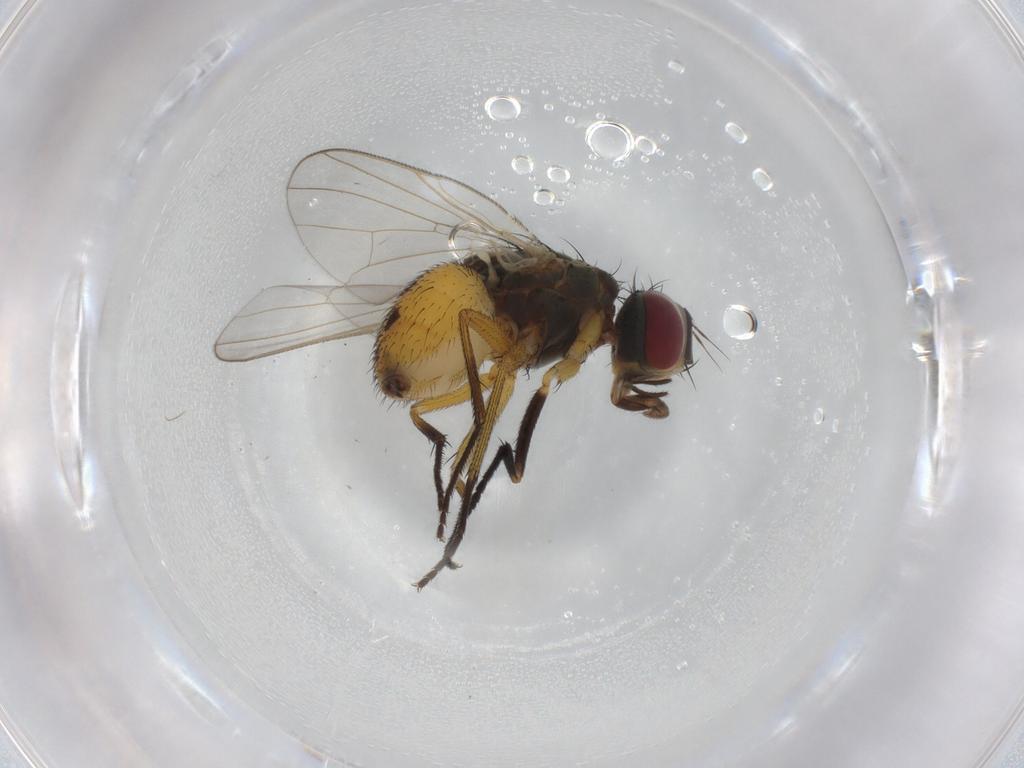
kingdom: Animalia
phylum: Arthropoda
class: Insecta
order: Diptera
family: Muscidae
